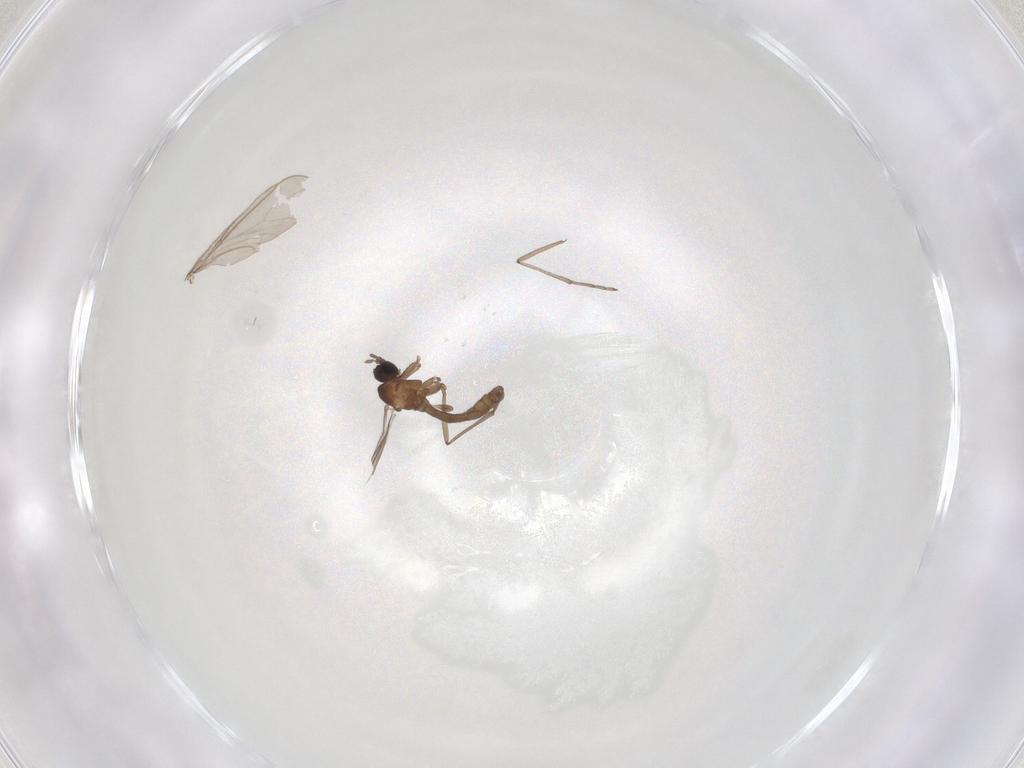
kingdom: Animalia
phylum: Arthropoda
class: Insecta
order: Diptera
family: Sciaridae
